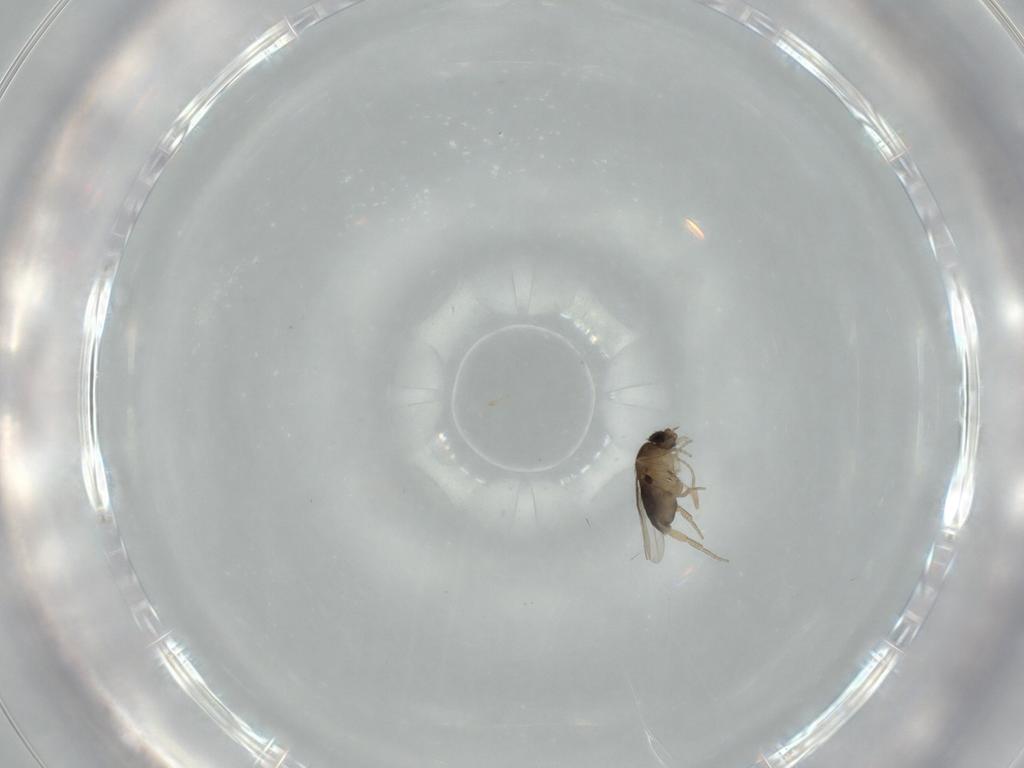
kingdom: Animalia
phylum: Arthropoda
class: Insecta
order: Diptera
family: Phoridae
